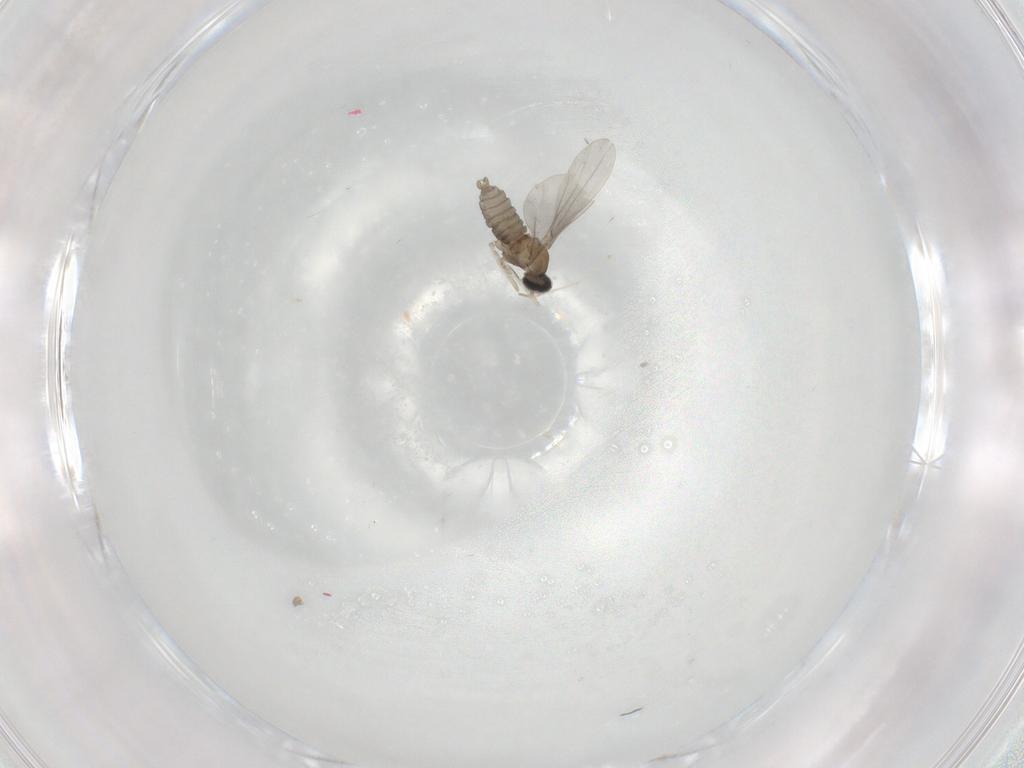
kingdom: Animalia
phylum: Arthropoda
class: Insecta
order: Diptera
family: Cecidomyiidae
